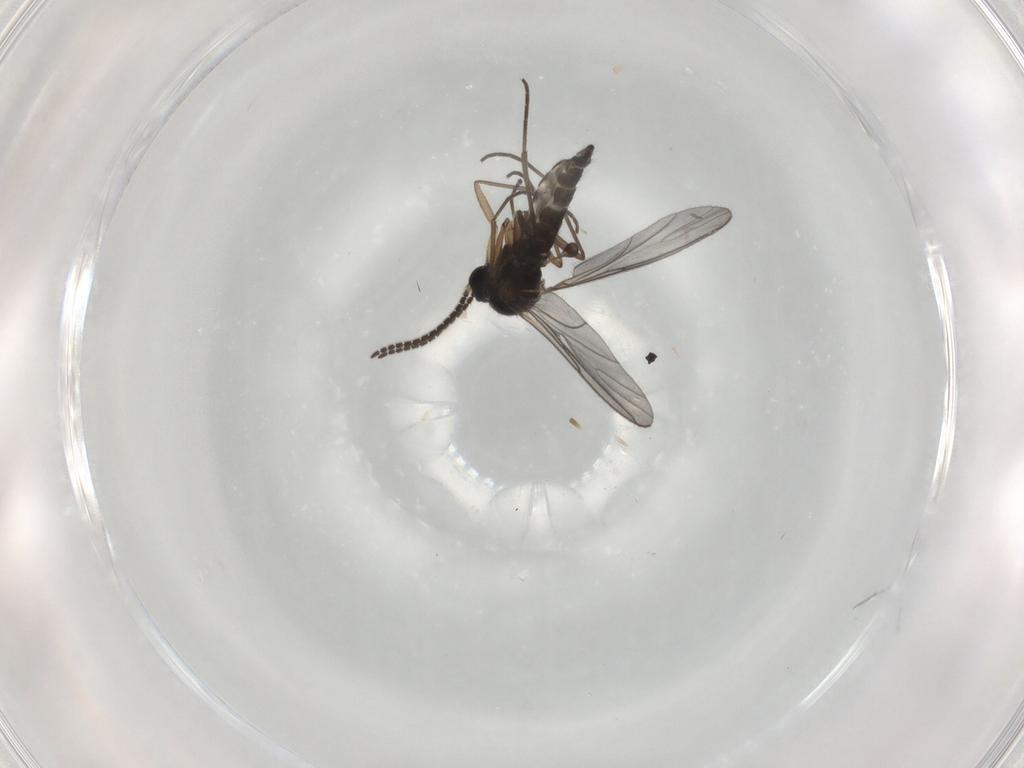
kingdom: Animalia
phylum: Arthropoda
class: Insecta
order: Diptera
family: Sciaridae
